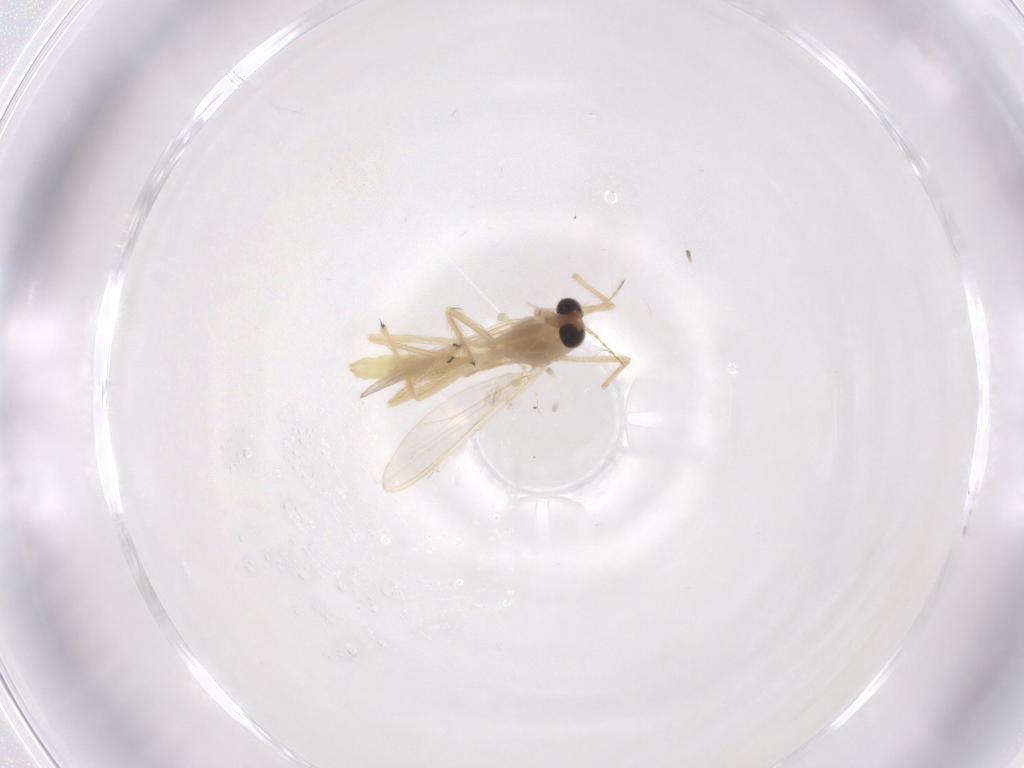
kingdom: Animalia
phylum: Arthropoda
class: Insecta
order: Diptera
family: Chironomidae
